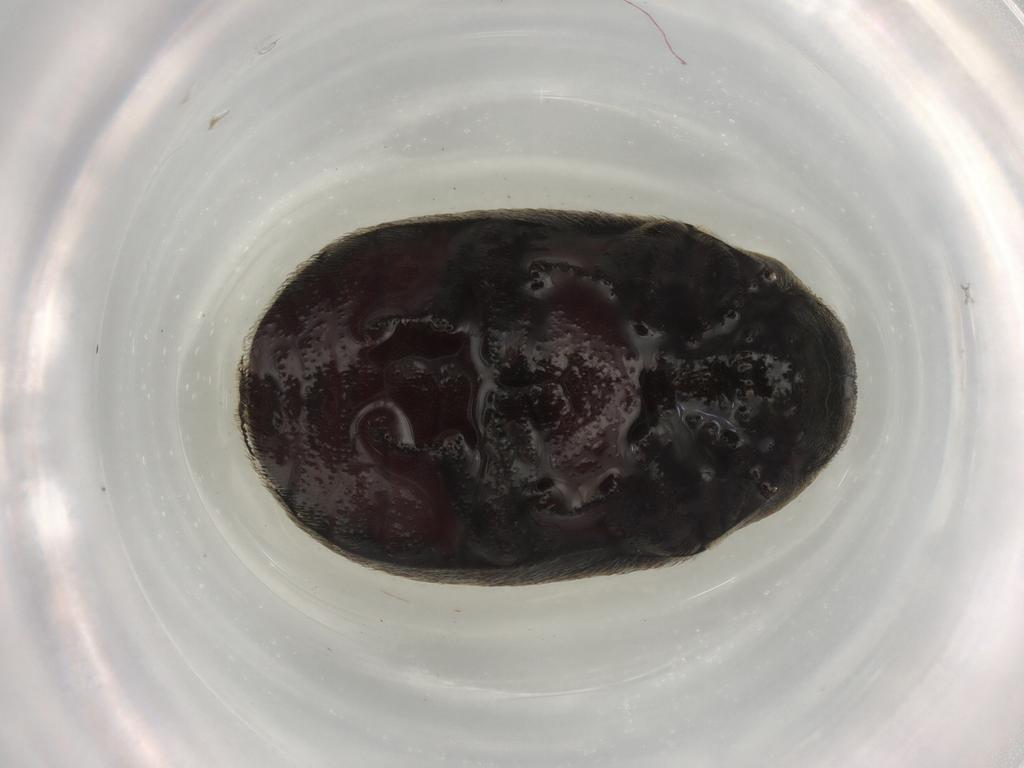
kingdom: Animalia
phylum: Arthropoda
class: Insecta
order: Coleoptera
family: Byrrhidae
